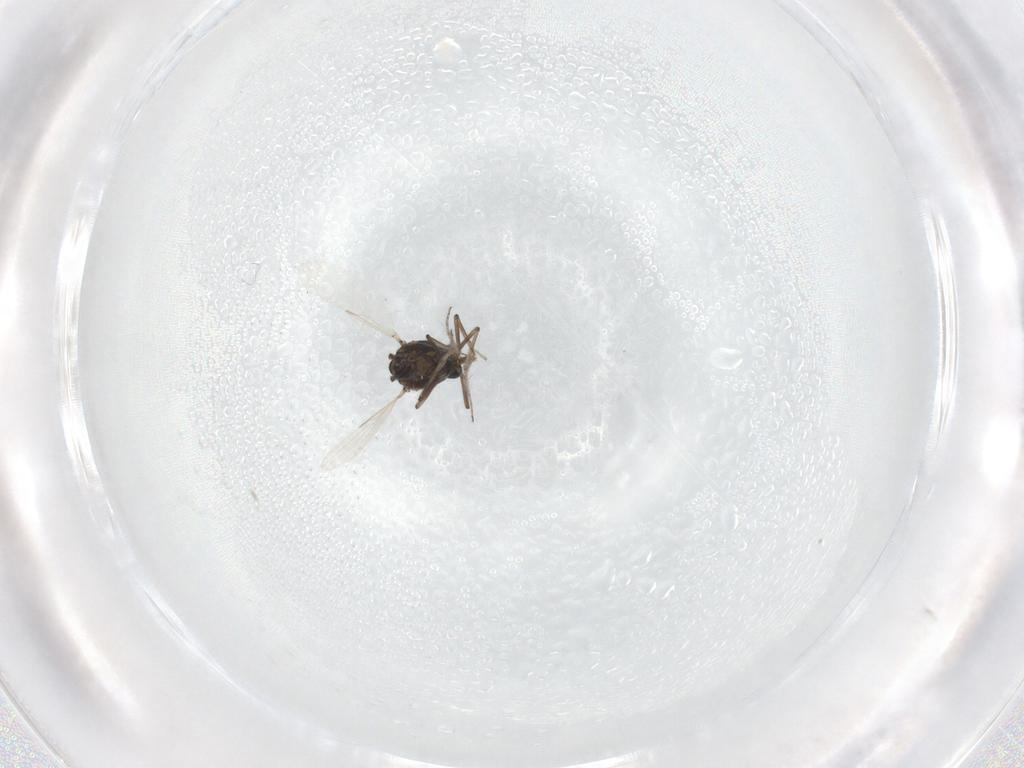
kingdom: Animalia
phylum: Arthropoda
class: Insecta
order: Diptera
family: Ceratopogonidae
